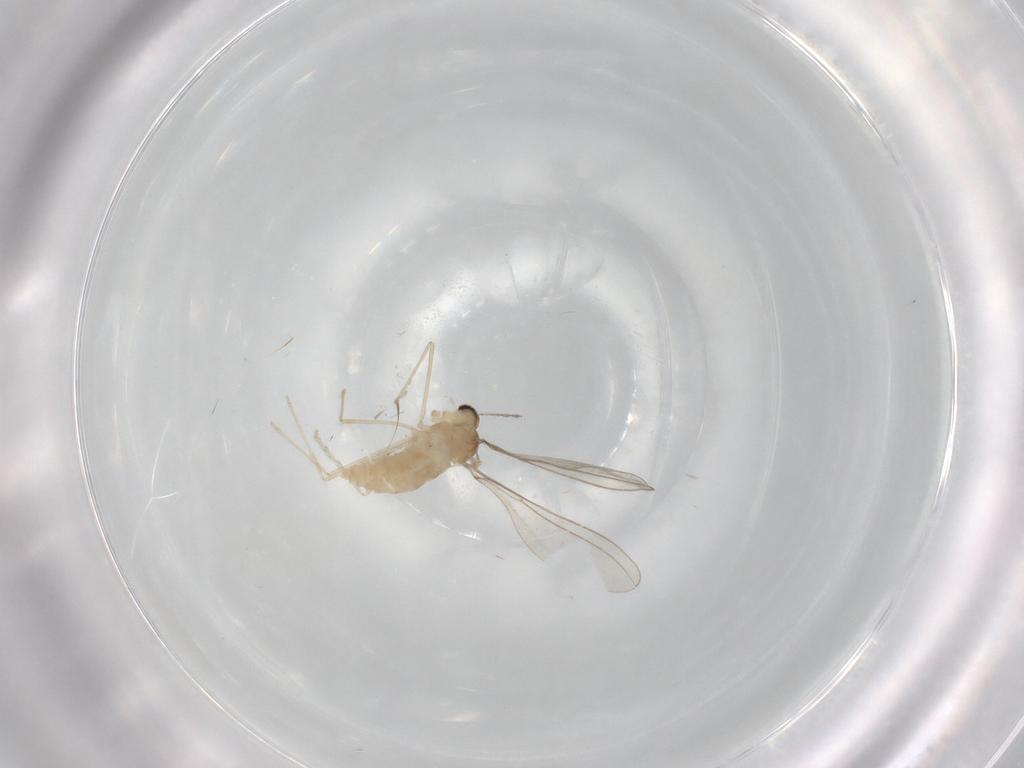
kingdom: Animalia
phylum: Arthropoda
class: Insecta
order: Diptera
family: Cecidomyiidae
